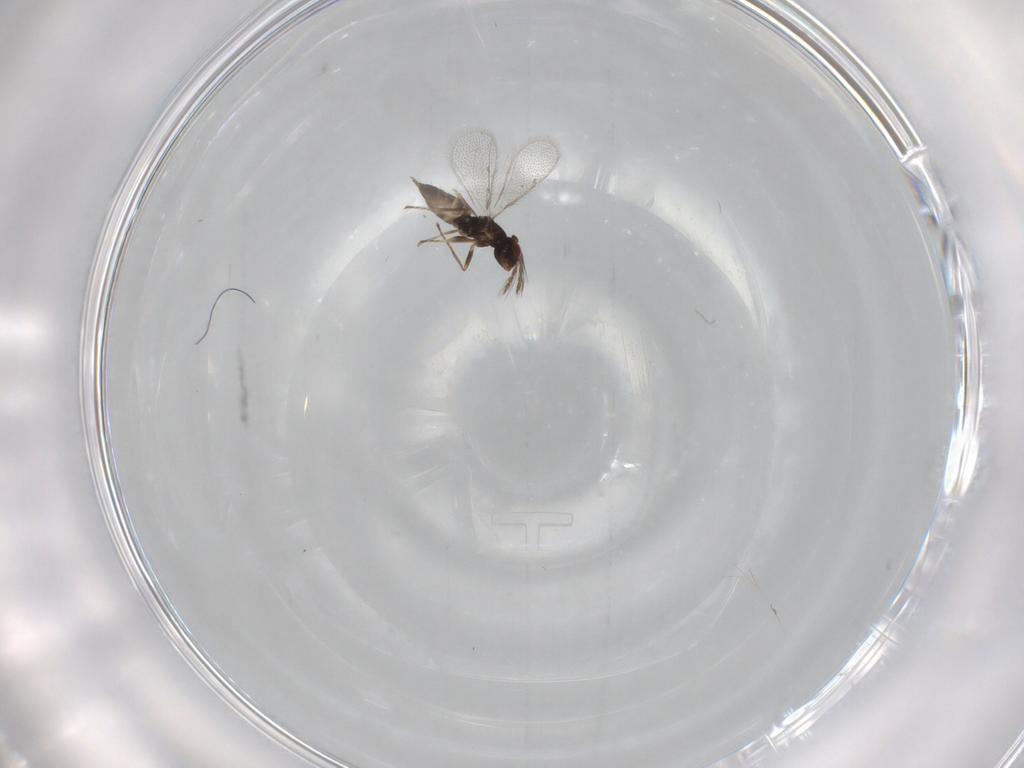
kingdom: Animalia
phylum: Arthropoda
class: Insecta
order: Hymenoptera
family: Eulophidae
